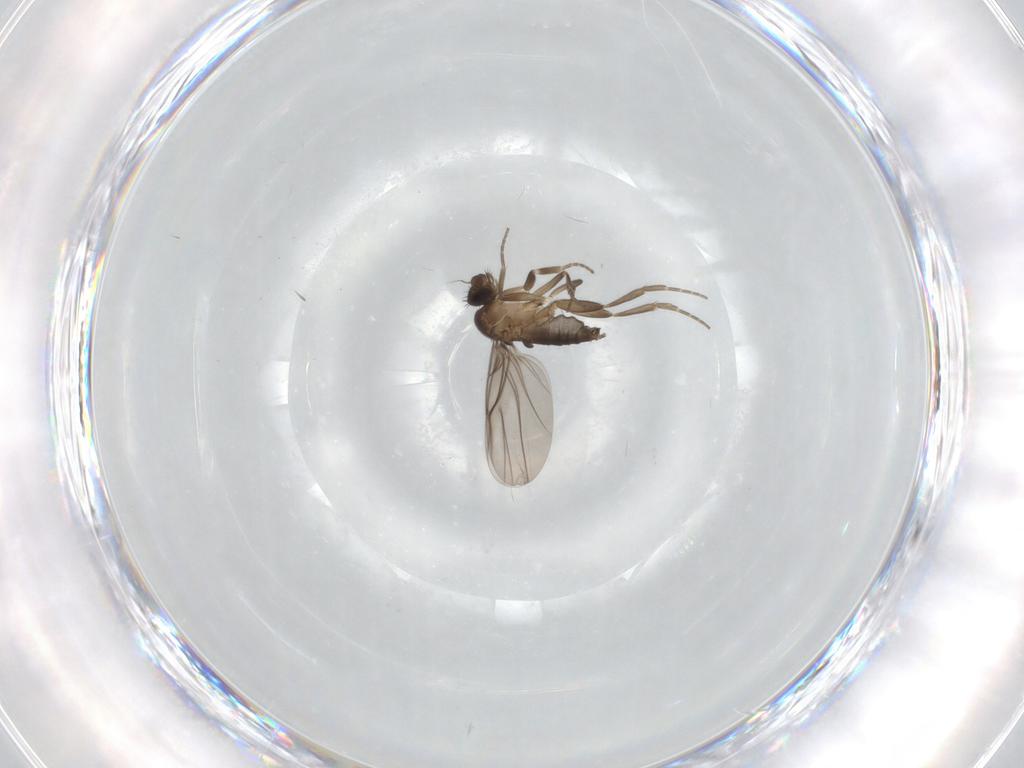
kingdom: Animalia
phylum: Arthropoda
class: Insecta
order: Diptera
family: Phoridae
